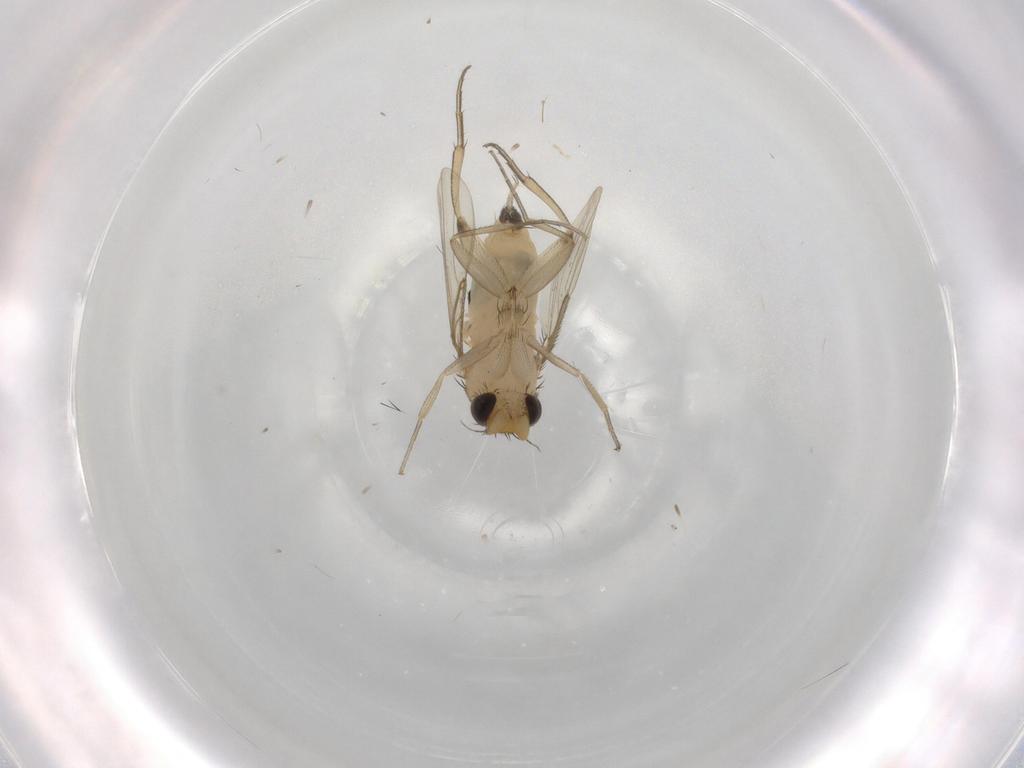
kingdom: Animalia
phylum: Arthropoda
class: Insecta
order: Diptera
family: Phoridae
